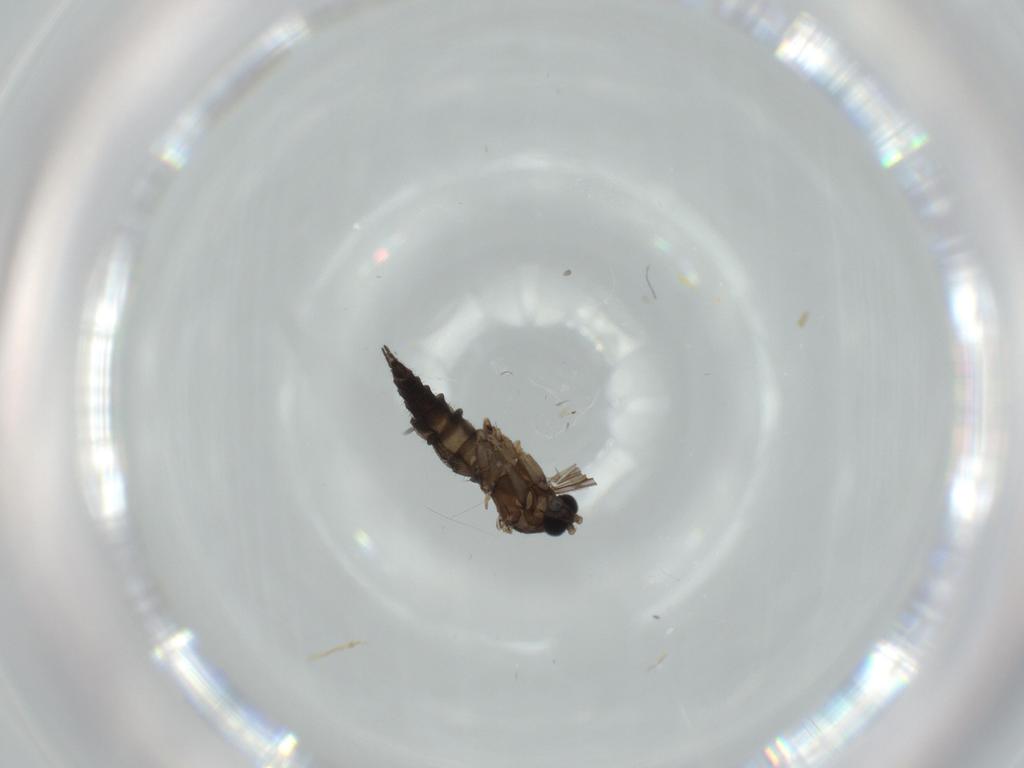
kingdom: Animalia
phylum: Arthropoda
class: Insecta
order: Diptera
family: Sciaridae
